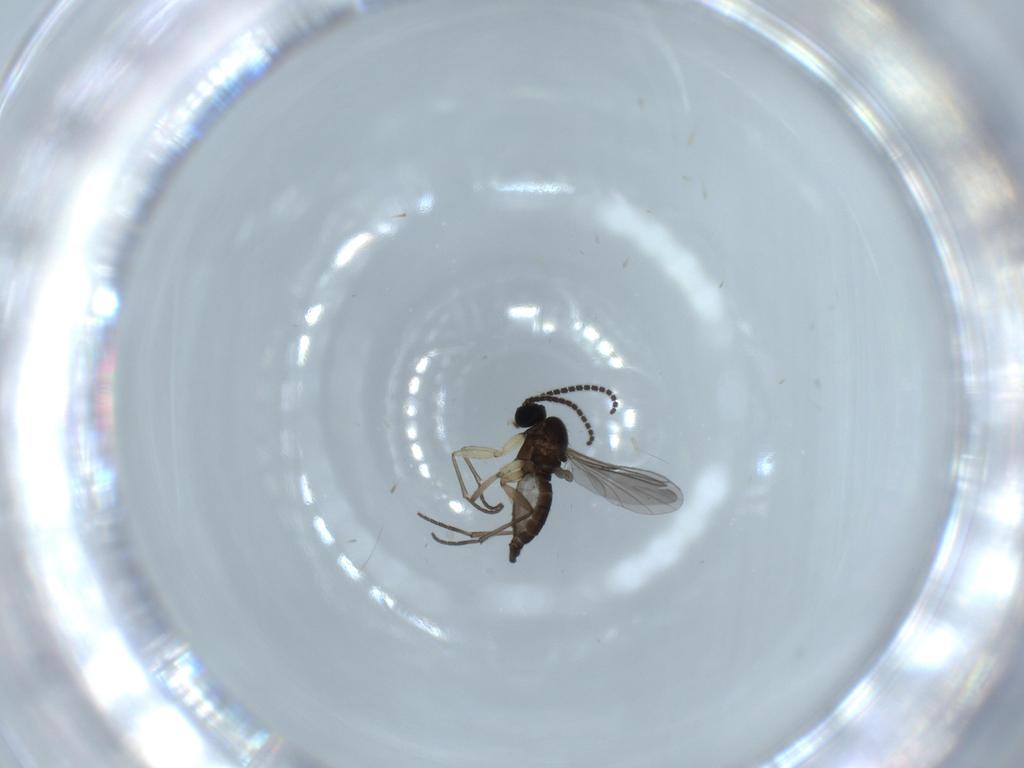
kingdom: Animalia
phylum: Arthropoda
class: Insecta
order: Diptera
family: Sciaridae
